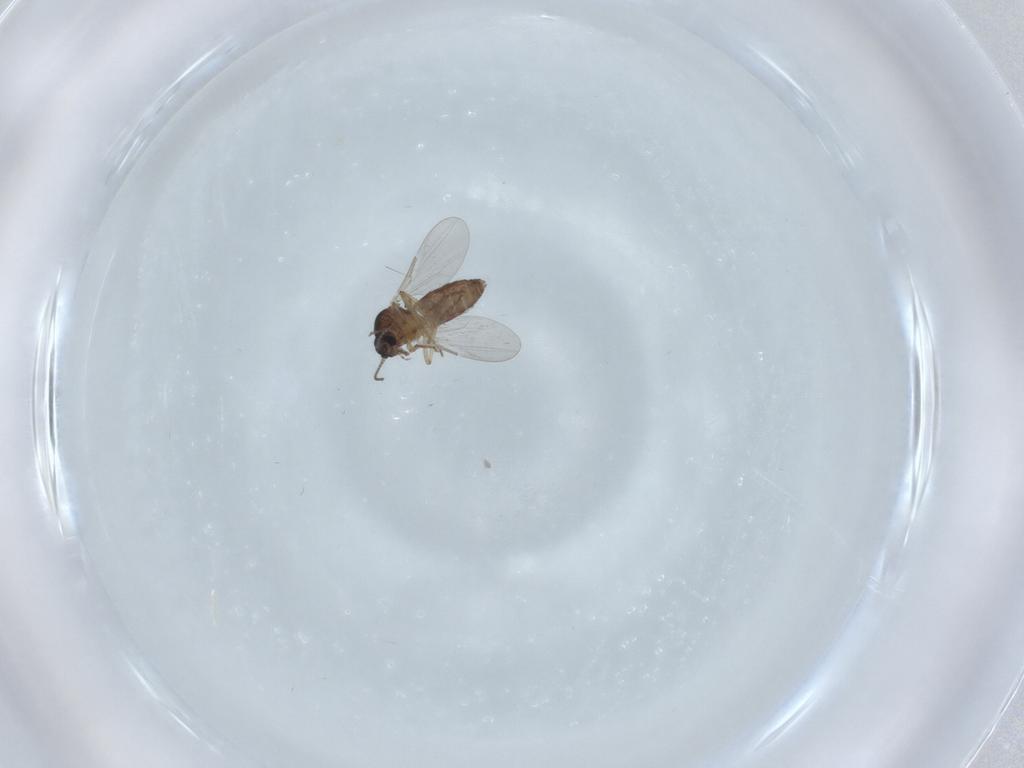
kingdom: Animalia
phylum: Arthropoda
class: Insecta
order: Diptera
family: Ceratopogonidae
